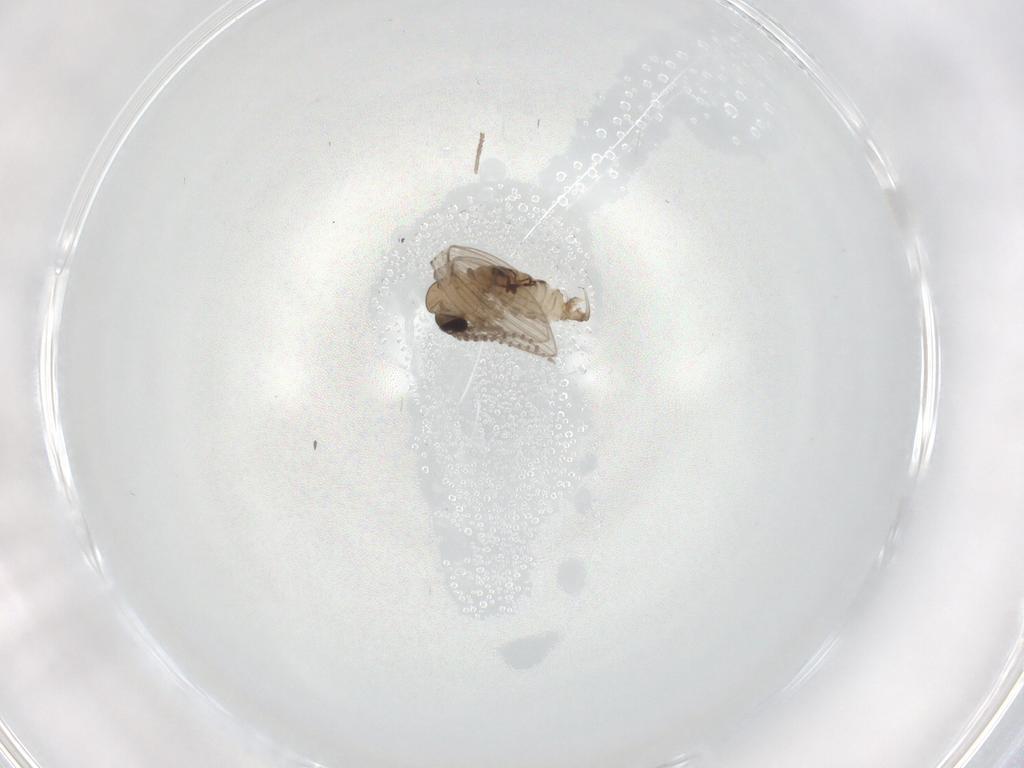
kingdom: Animalia
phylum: Arthropoda
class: Insecta
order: Diptera
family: Psychodidae
